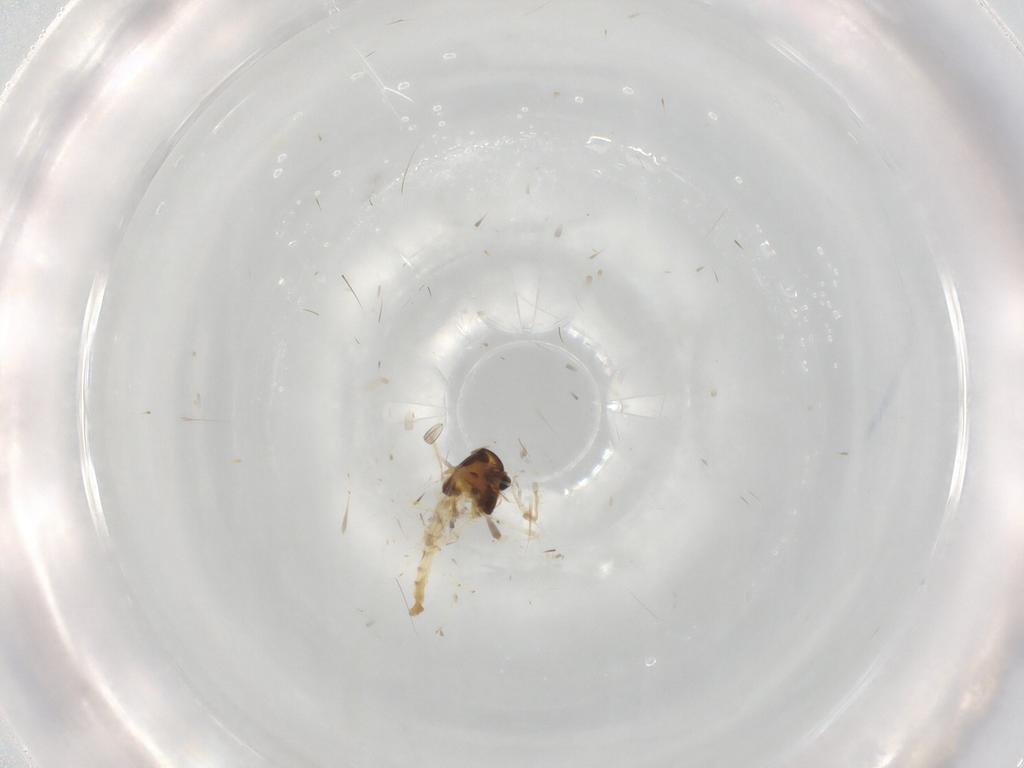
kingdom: Animalia
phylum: Arthropoda
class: Insecta
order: Diptera
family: Chironomidae
